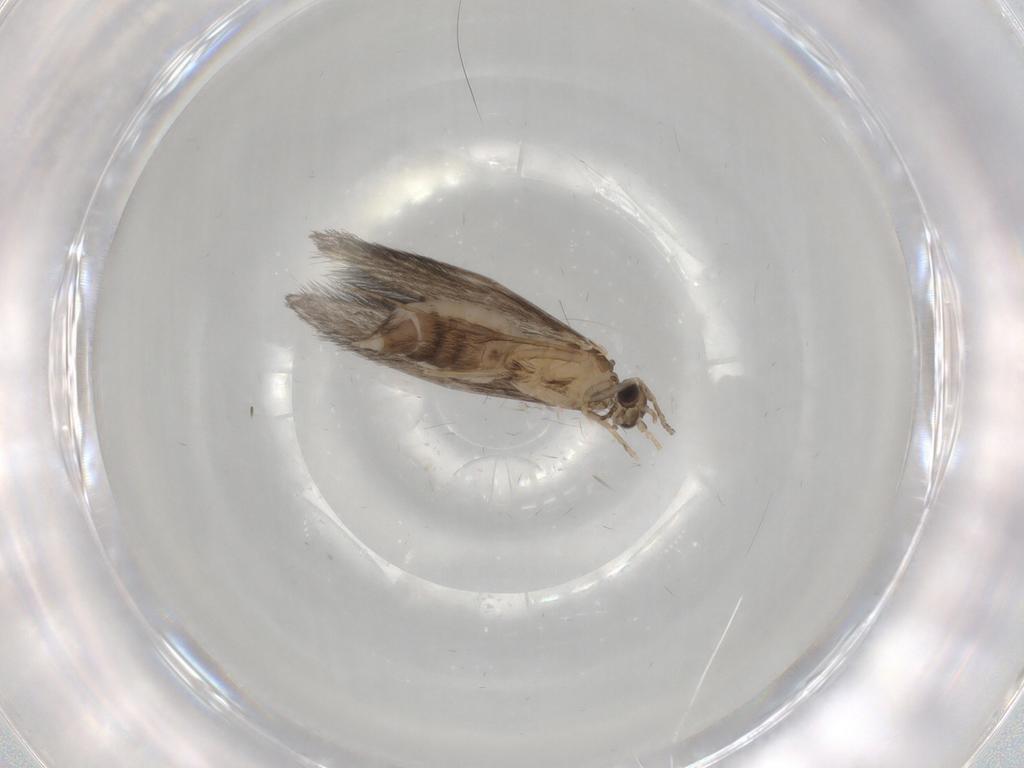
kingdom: Animalia
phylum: Arthropoda
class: Insecta
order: Trichoptera
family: Hydroptilidae
